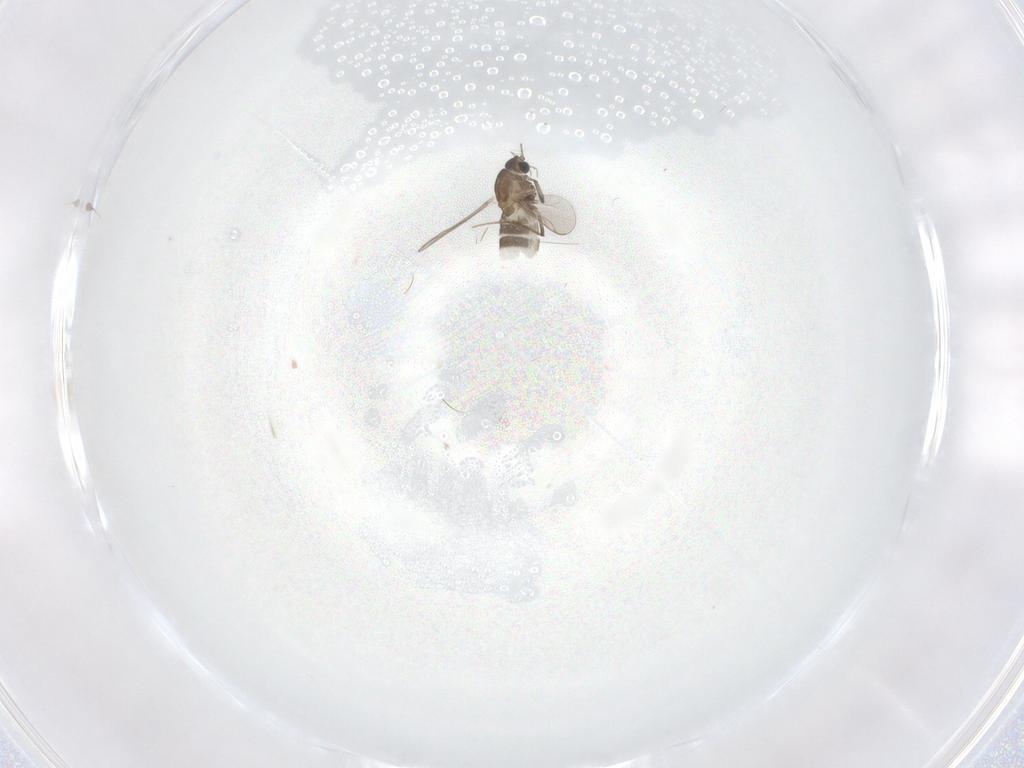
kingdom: Animalia
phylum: Arthropoda
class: Insecta
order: Diptera
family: Chironomidae
